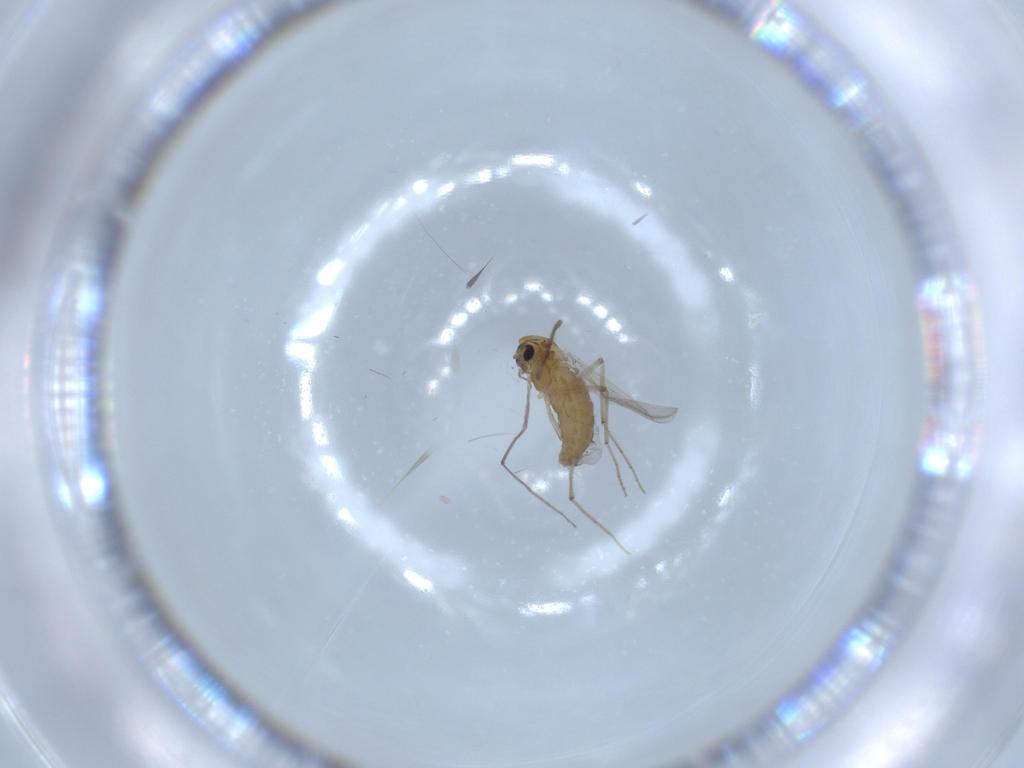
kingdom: Animalia
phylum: Arthropoda
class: Insecta
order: Diptera
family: Chironomidae
